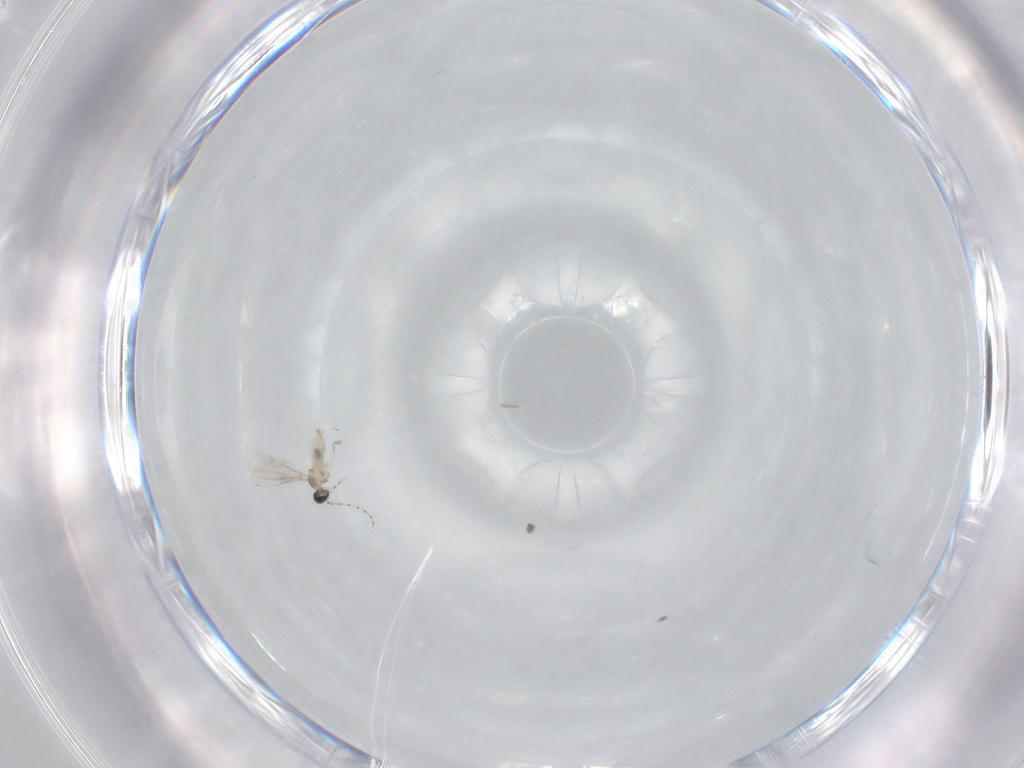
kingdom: Animalia
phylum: Arthropoda
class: Insecta
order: Diptera
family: Cecidomyiidae
